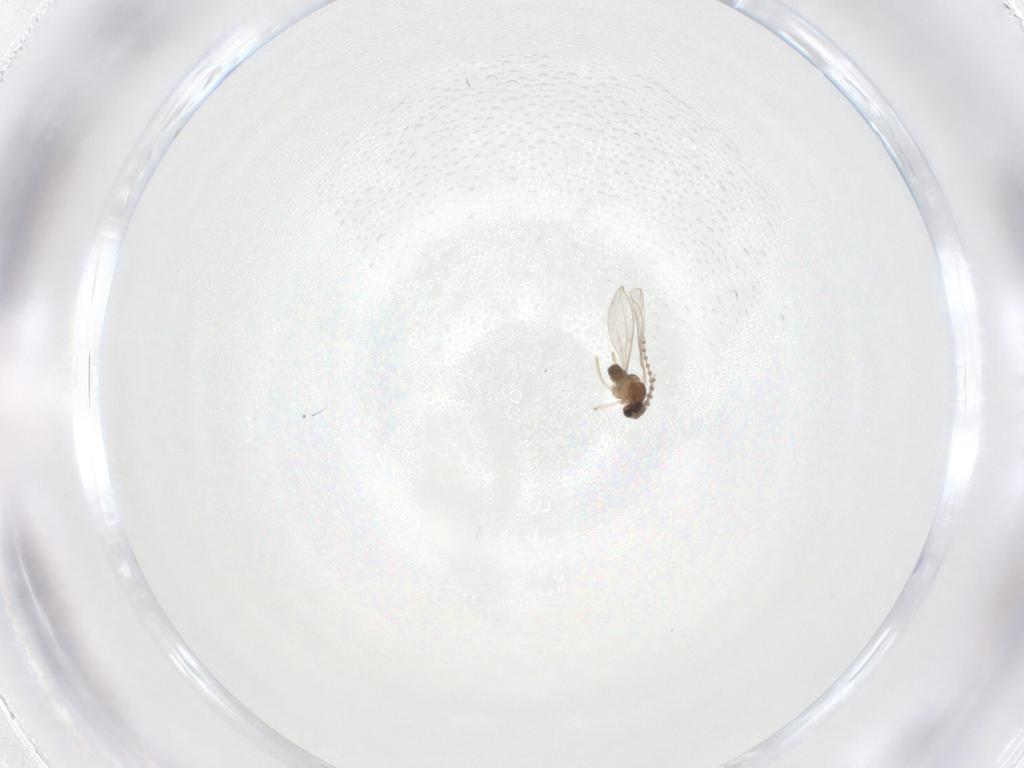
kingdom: Animalia
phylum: Arthropoda
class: Insecta
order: Diptera
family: Cecidomyiidae
